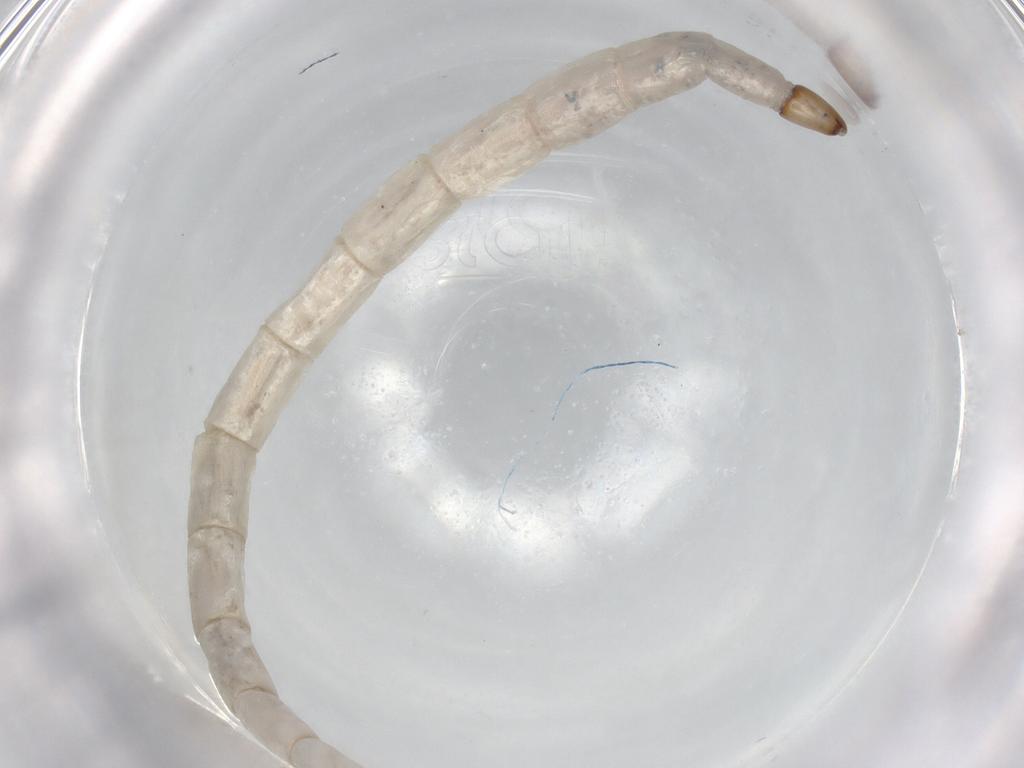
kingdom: Animalia
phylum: Arthropoda
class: Insecta
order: Diptera
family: Ceratopogonidae
